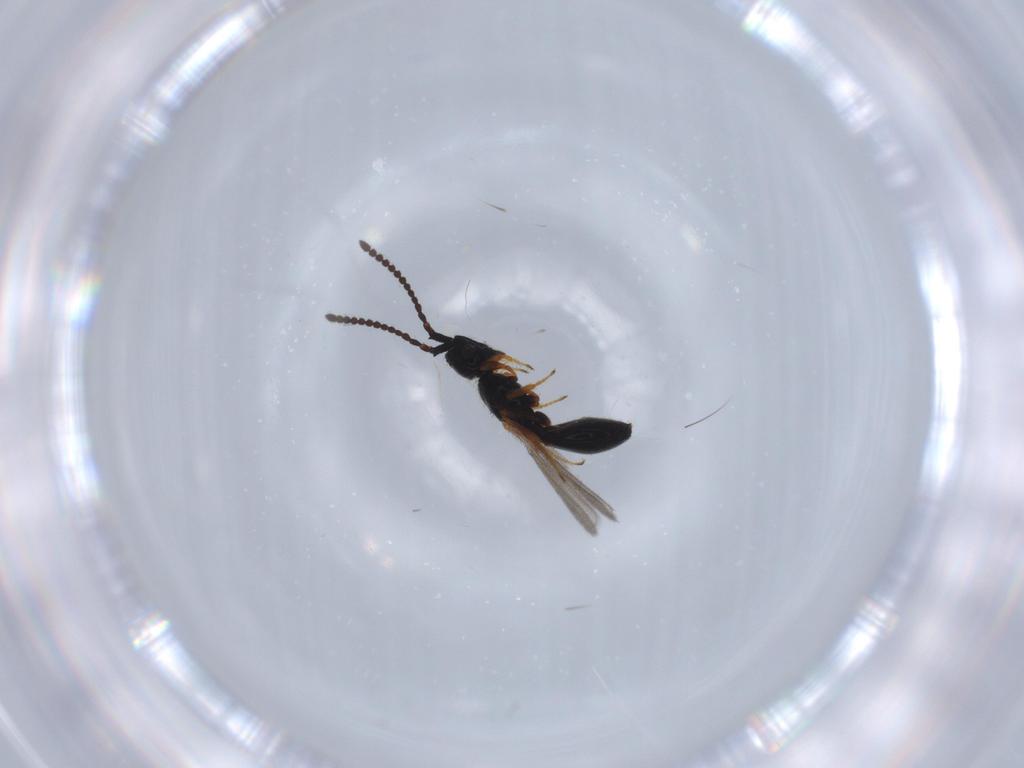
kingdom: Animalia
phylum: Arthropoda
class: Insecta
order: Hymenoptera
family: Diapriidae
